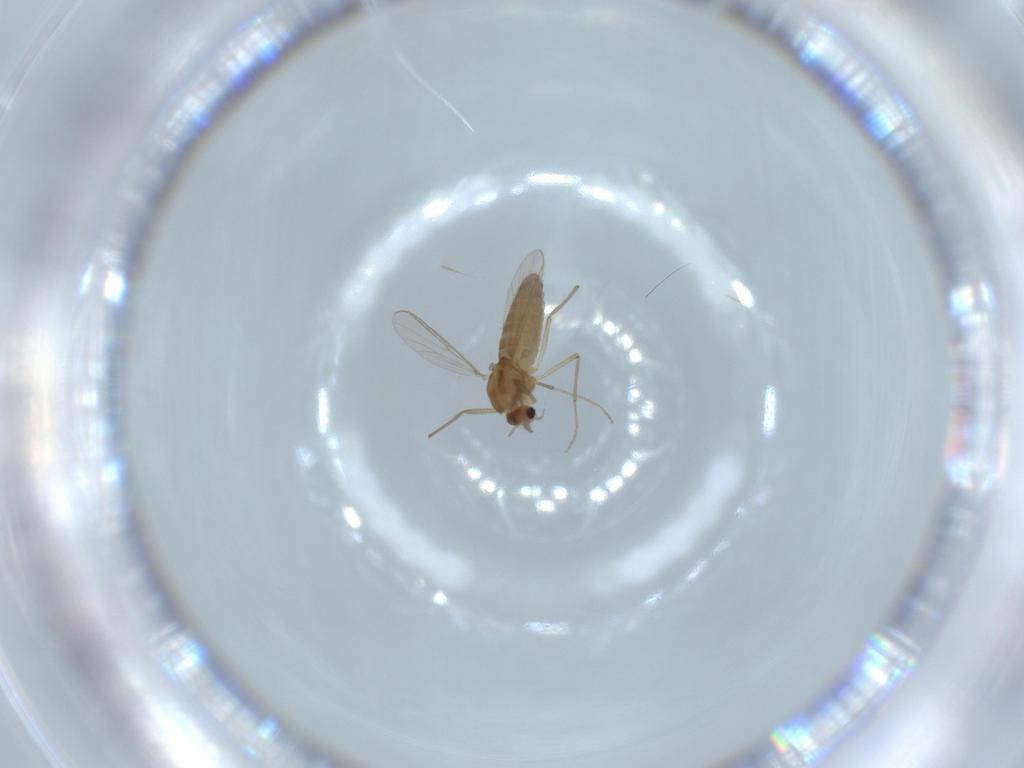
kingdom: Animalia
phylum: Arthropoda
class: Insecta
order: Diptera
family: Chironomidae
